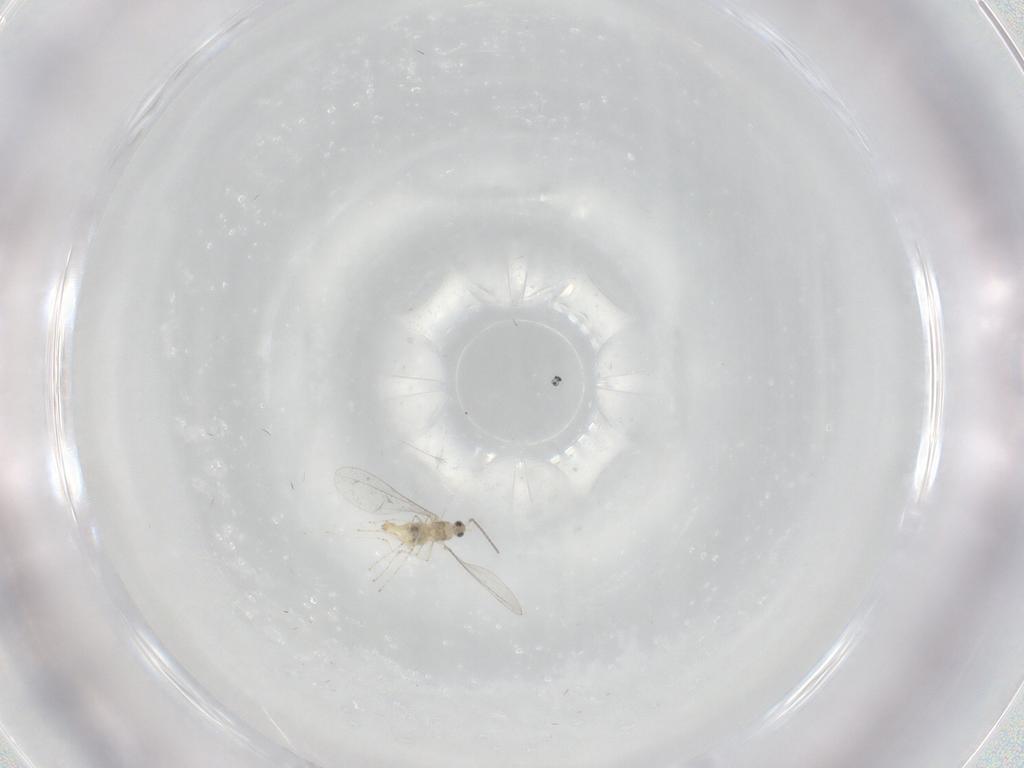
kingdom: Animalia
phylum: Arthropoda
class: Insecta
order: Diptera
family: Cecidomyiidae
